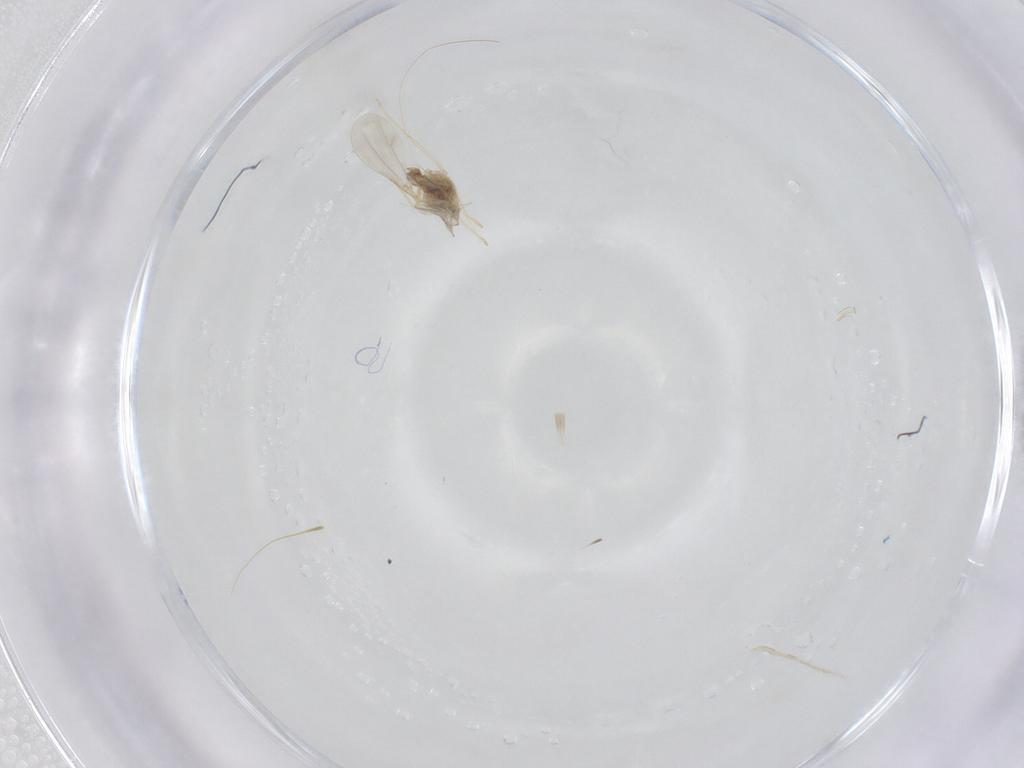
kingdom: Animalia
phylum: Arthropoda
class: Insecta
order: Diptera
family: Cecidomyiidae
